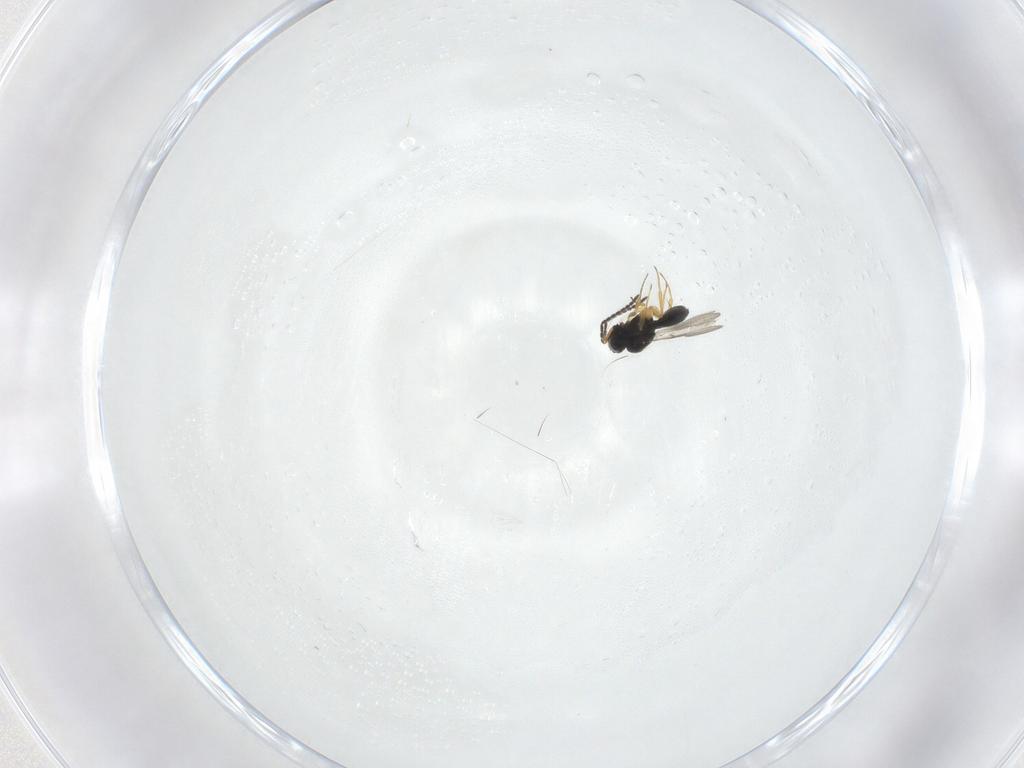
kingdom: Animalia
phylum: Arthropoda
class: Insecta
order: Hymenoptera
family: Scelionidae
